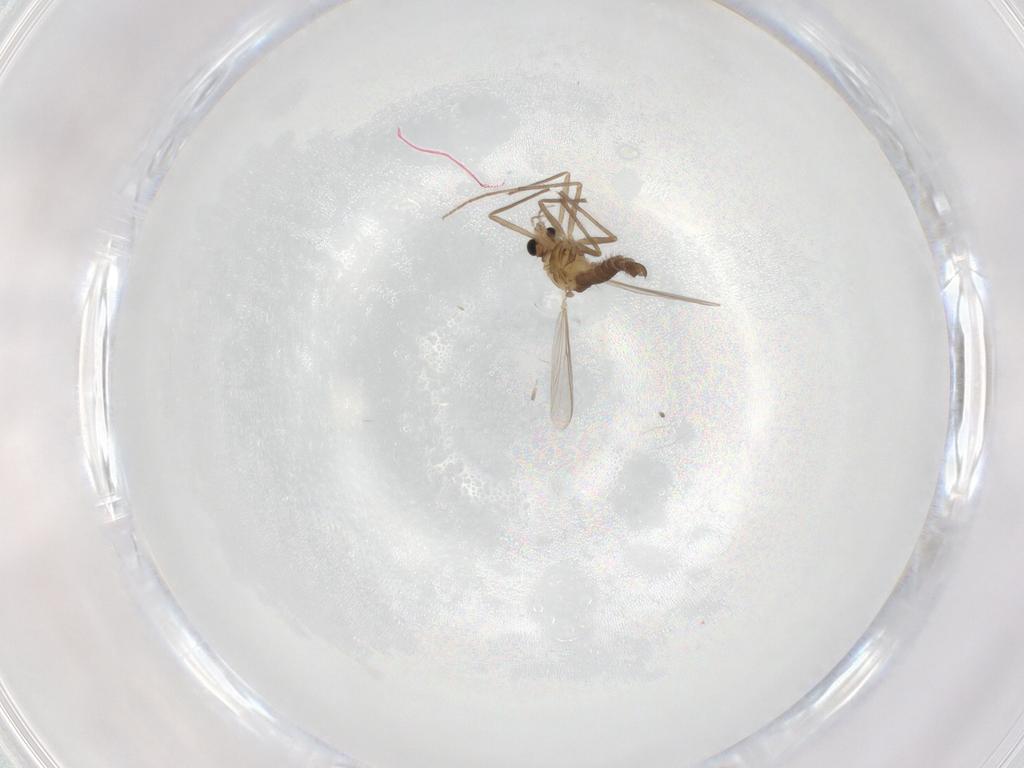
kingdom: Animalia
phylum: Arthropoda
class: Insecta
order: Diptera
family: Chironomidae
